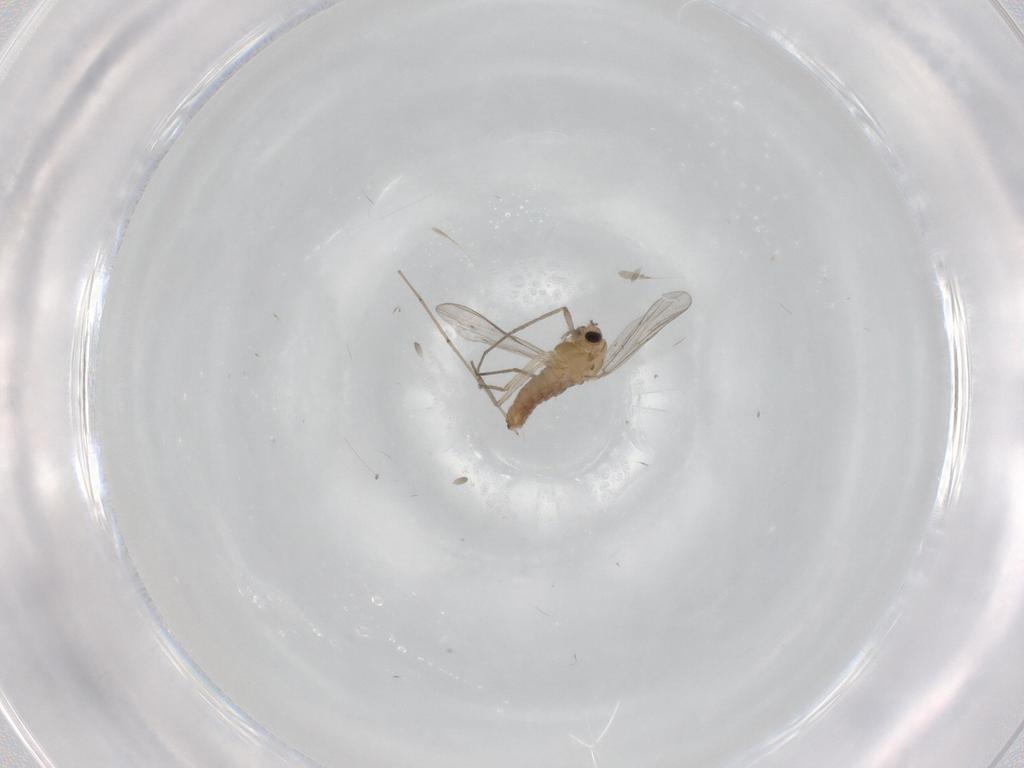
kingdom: Animalia
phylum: Arthropoda
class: Insecta
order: Diptera
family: Chironomidae
